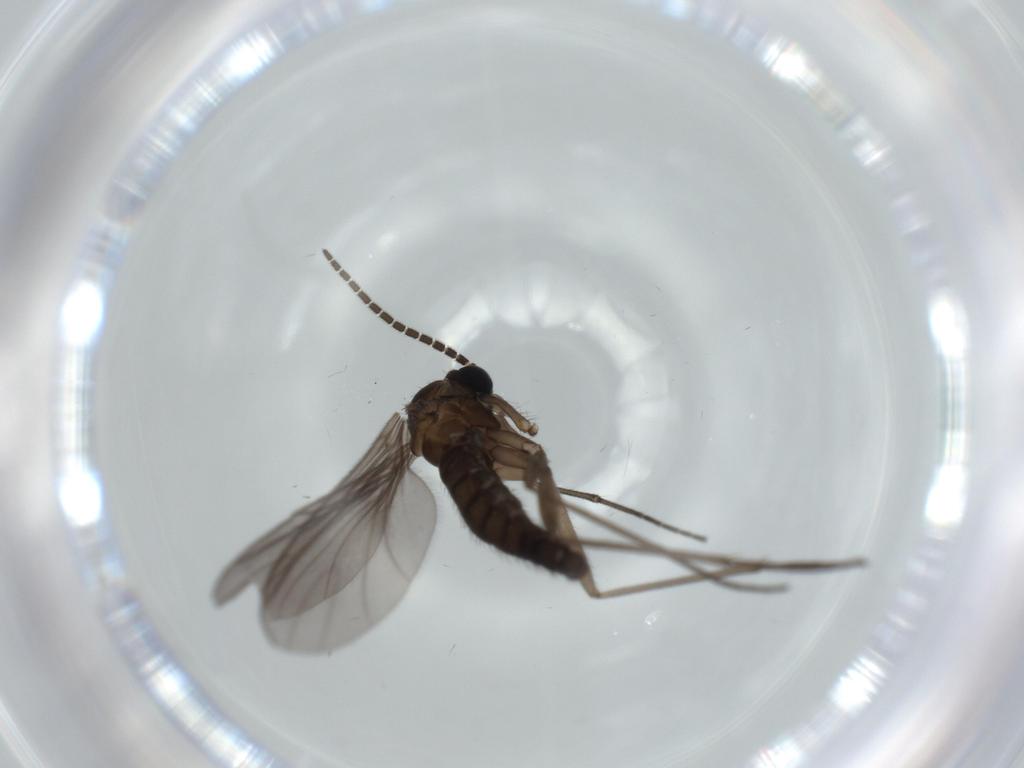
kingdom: Animalia
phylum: Arthropoda
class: Insecta
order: Diptera
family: Sciaridae
